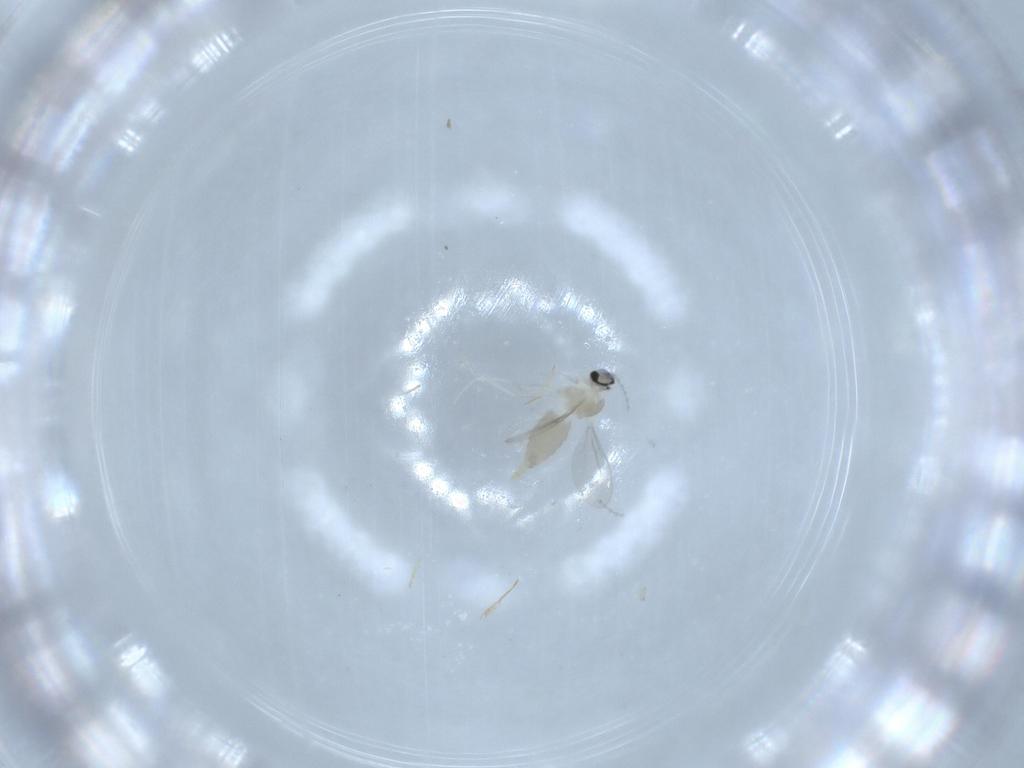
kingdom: Animalia
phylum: Arthropoda
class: Insecta
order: Diptera
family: Cecidomyiidae
